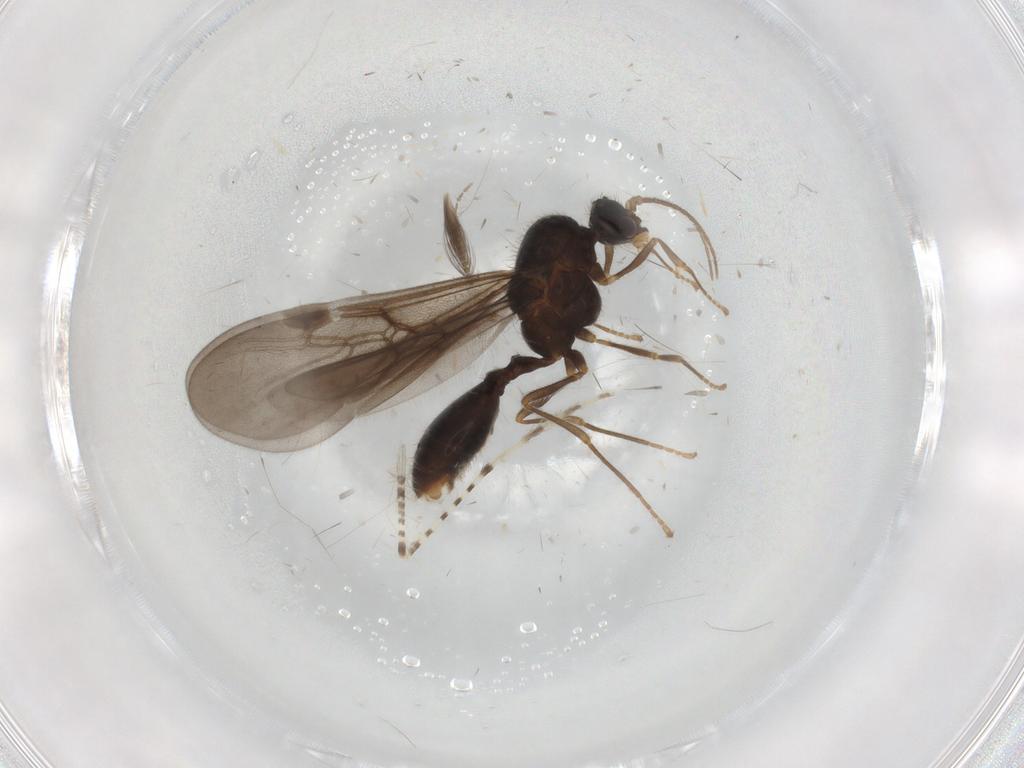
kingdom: Animalia
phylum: Arthropoda
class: Insecta
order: Hymenoptera
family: Formicidae
